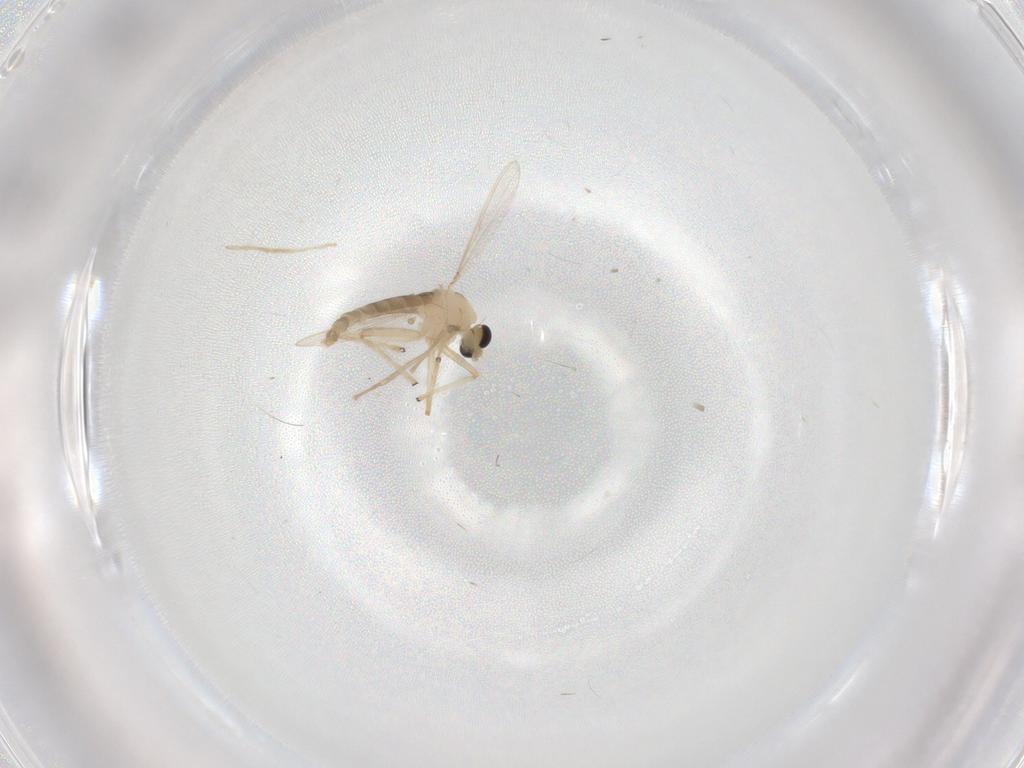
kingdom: Animalia
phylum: Arthropoda
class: Insecta
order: Diptera
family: Chironomidae
